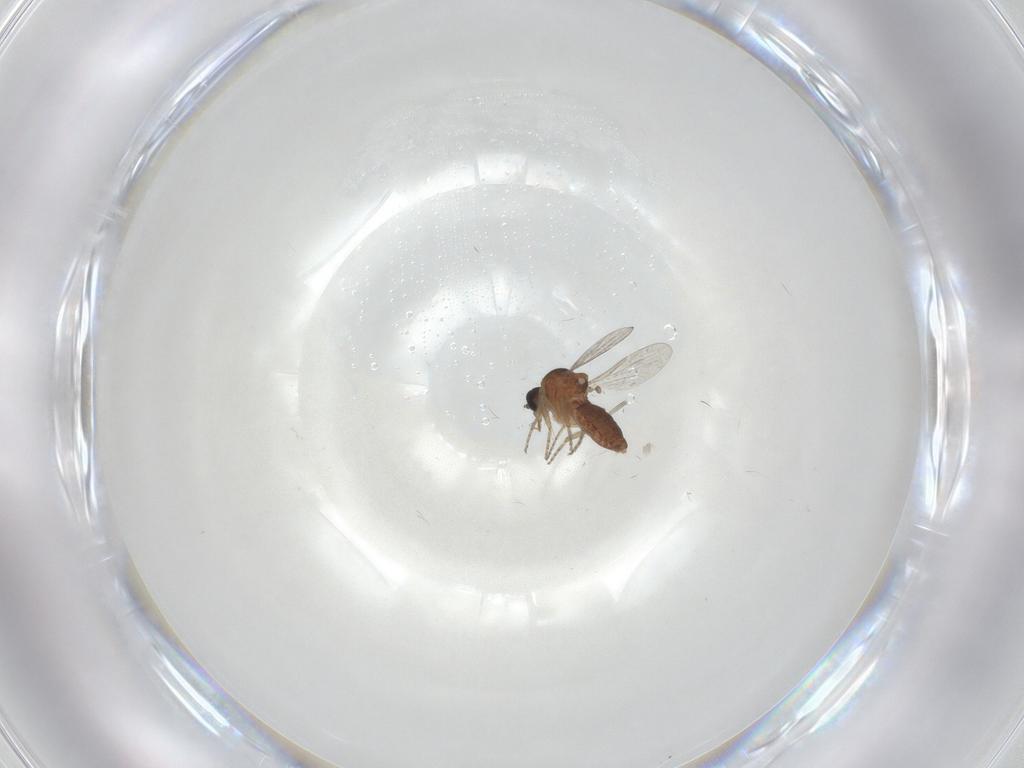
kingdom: Animalia
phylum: Arthropoda
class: Insecta
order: Diptera
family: Ceratopogonidae
